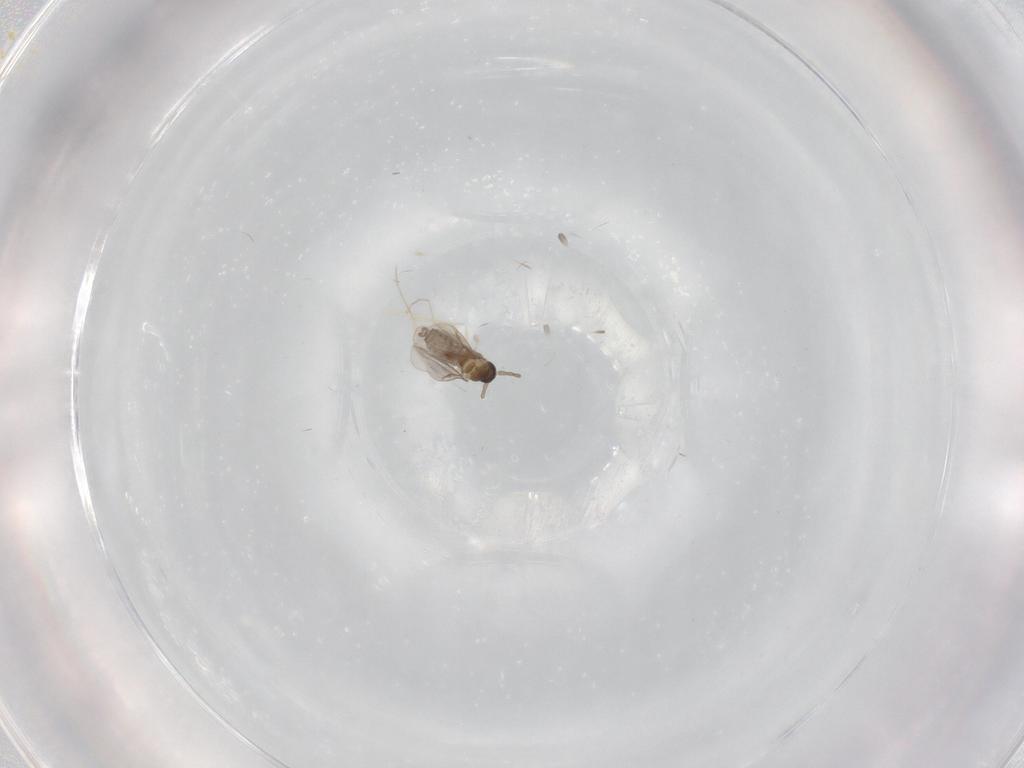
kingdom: Animalia
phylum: Arthropoda
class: Insecta
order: Diptera
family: Cecidomyiidae
